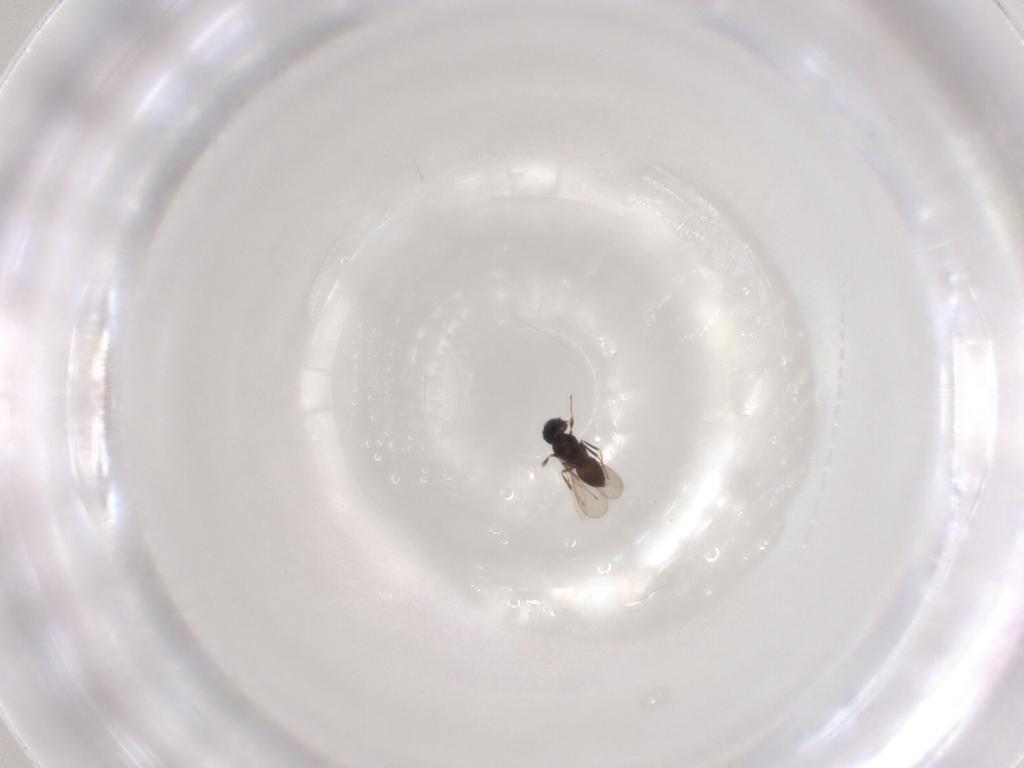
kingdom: Animalia
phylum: Arthropoda
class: Insecta
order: Hymenoptera
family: Scelionidae
